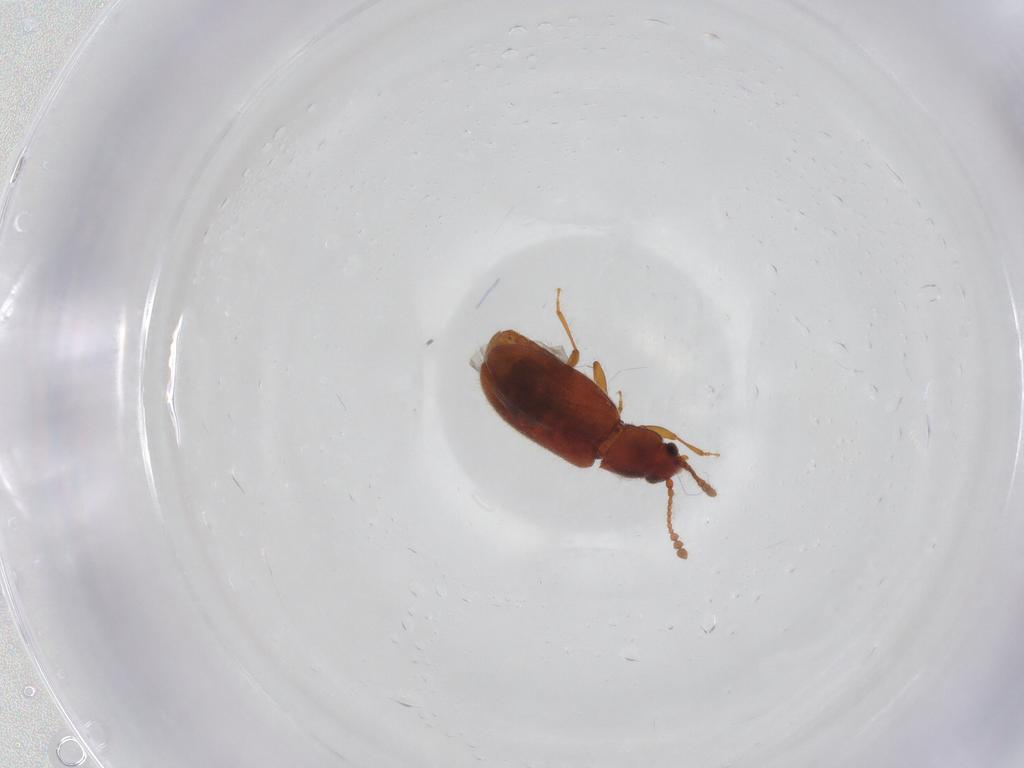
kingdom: Animalia
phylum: Arthropoda
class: Insecta
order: Coleoptera
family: Cryptophagidae
